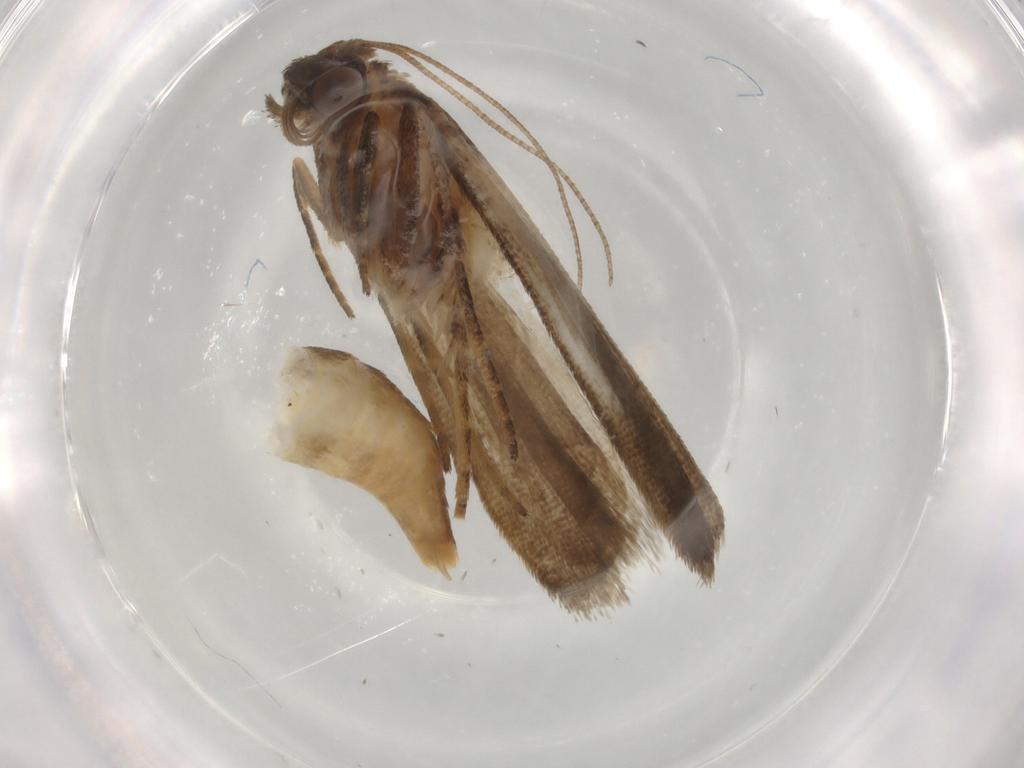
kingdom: Animalia
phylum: Arthropoda
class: Insecta
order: Lepidoptera
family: Noctuidae
